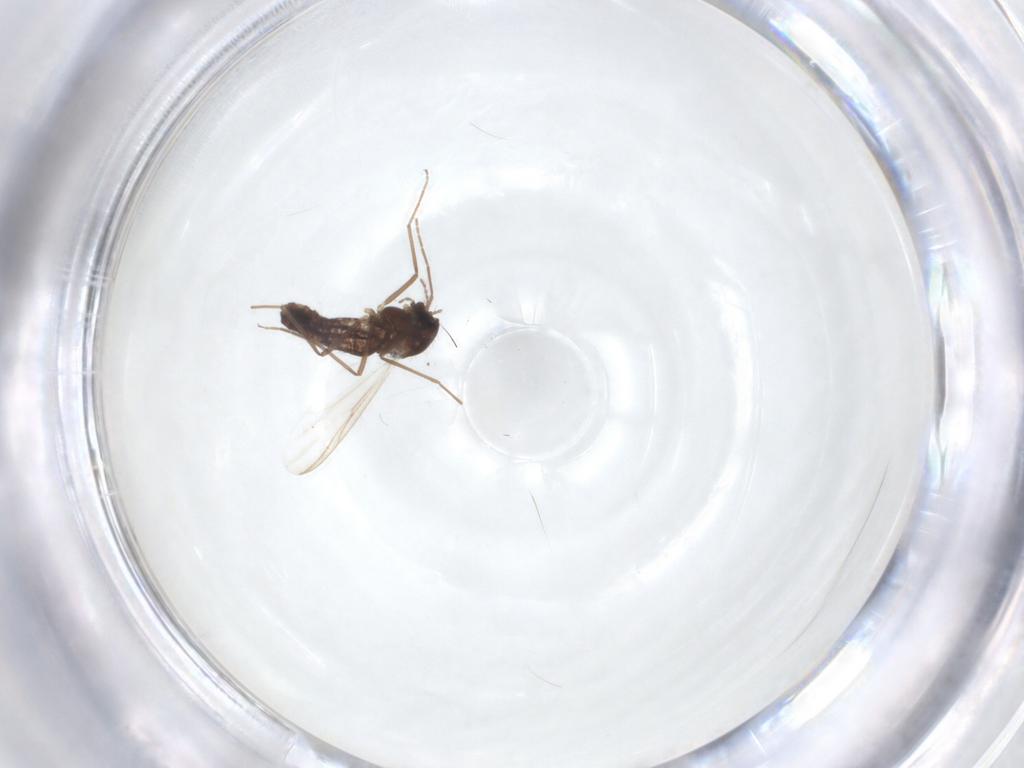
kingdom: Animalia
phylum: Arthropoda
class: Insecta
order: Diptera
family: Chironomidae
